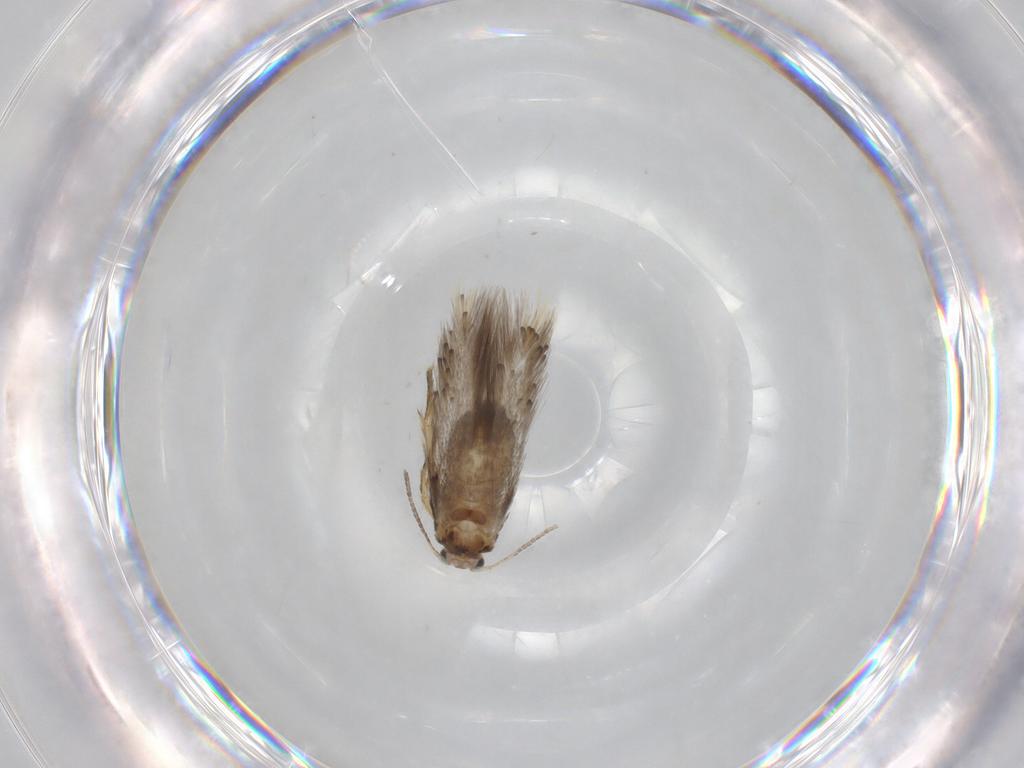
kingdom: Animalia
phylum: Arthropoda
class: Insecta
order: Lepidoptera
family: Nepticulidae
